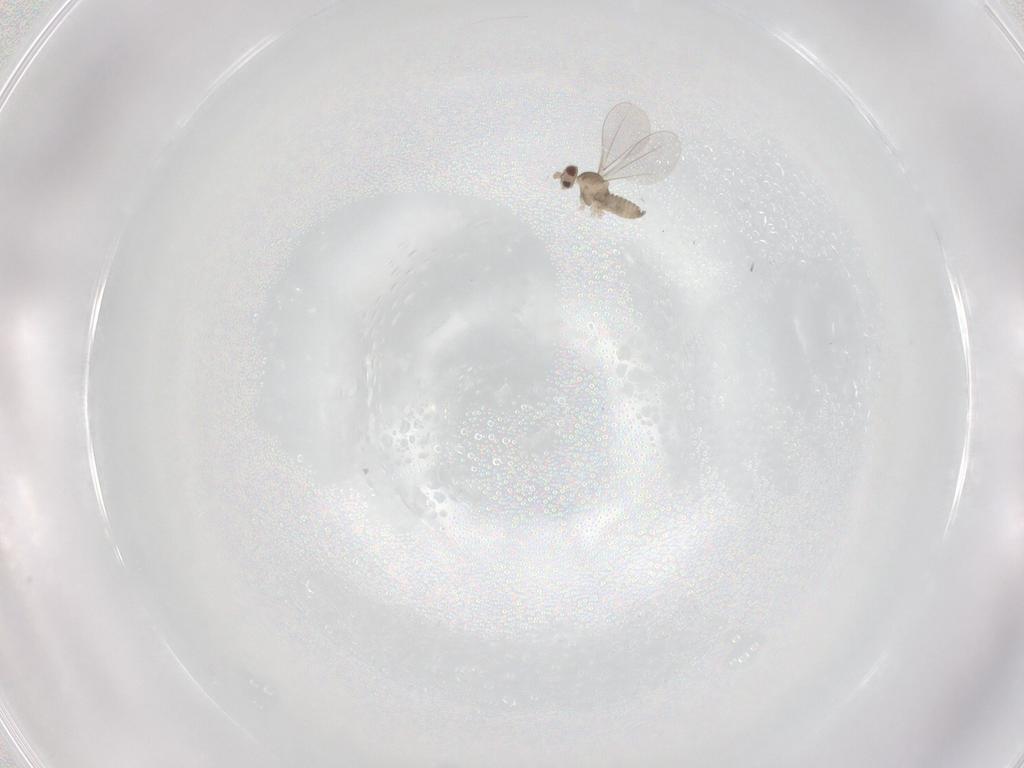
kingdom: Animalia
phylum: Arthropoda
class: Insecta
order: Diptera
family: Cecidomyiidae
